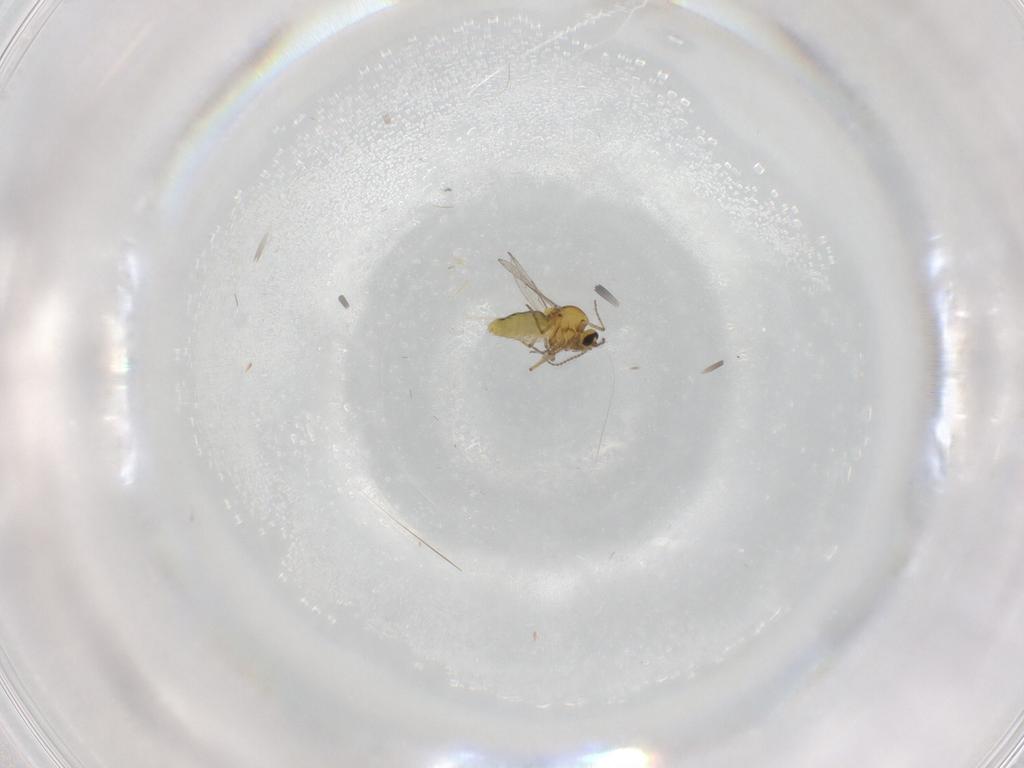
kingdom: Animalia
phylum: Arthropoda
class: Insecta
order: Diptera
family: Ceratopogonidae
